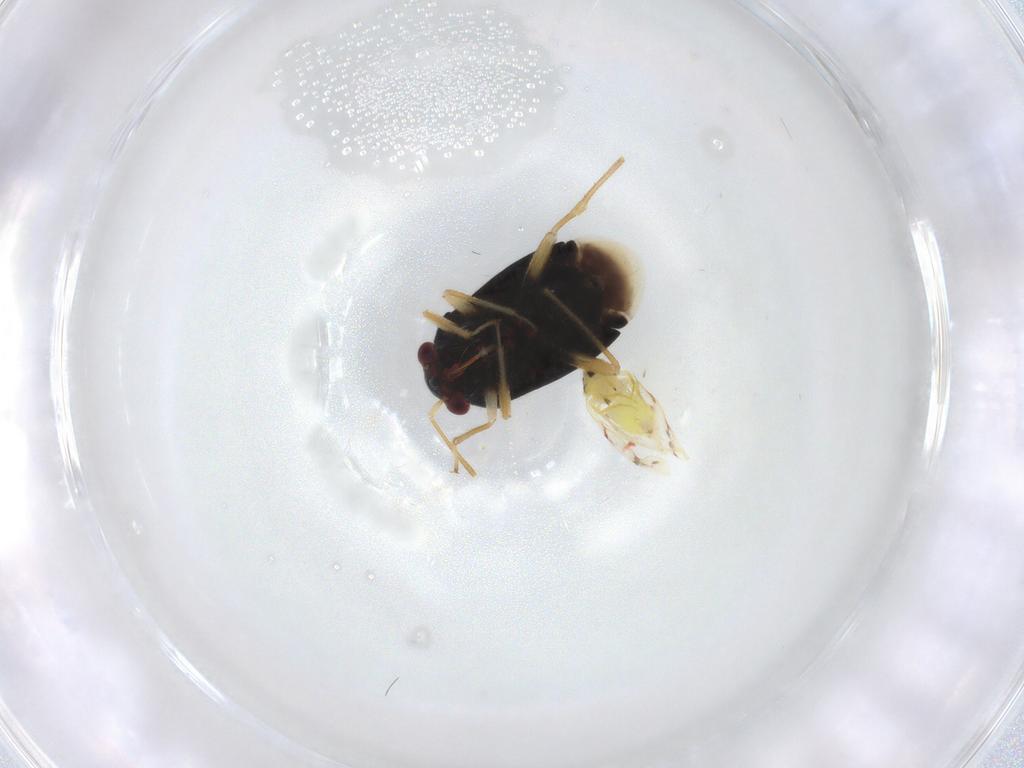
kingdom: Animalia
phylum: Arthropoda
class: Insecta
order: Hemiptera
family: Aleyrodidae
